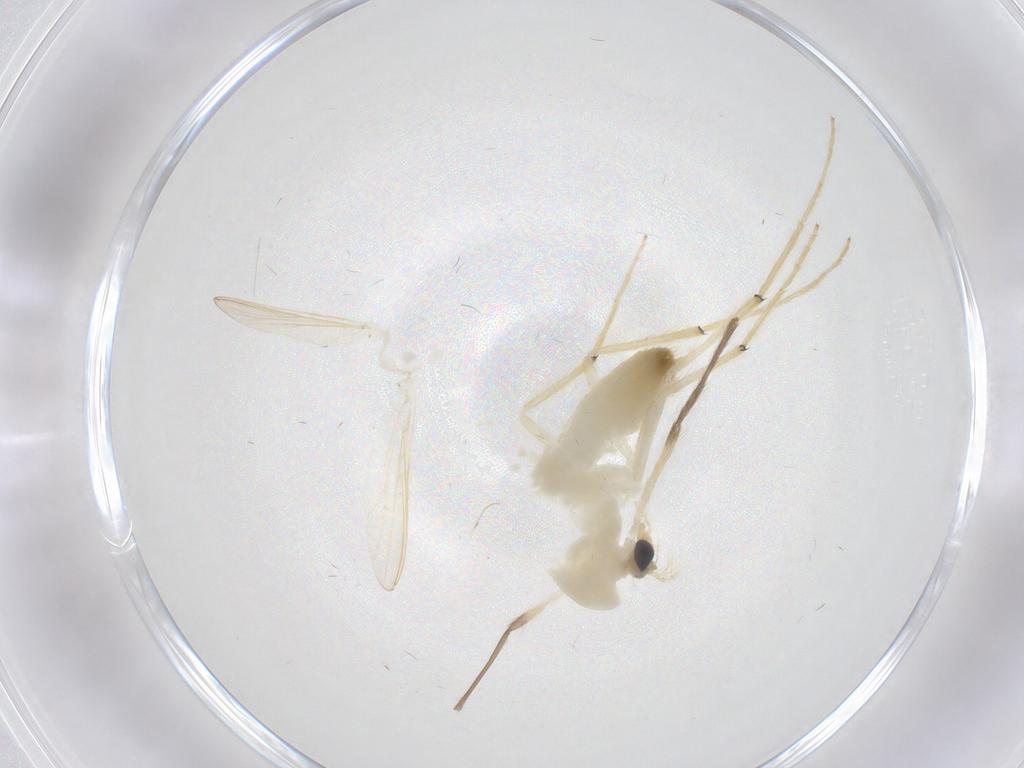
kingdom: Animalia
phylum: Arthropoda
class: Insecta
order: Diptera
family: Chironomidae
